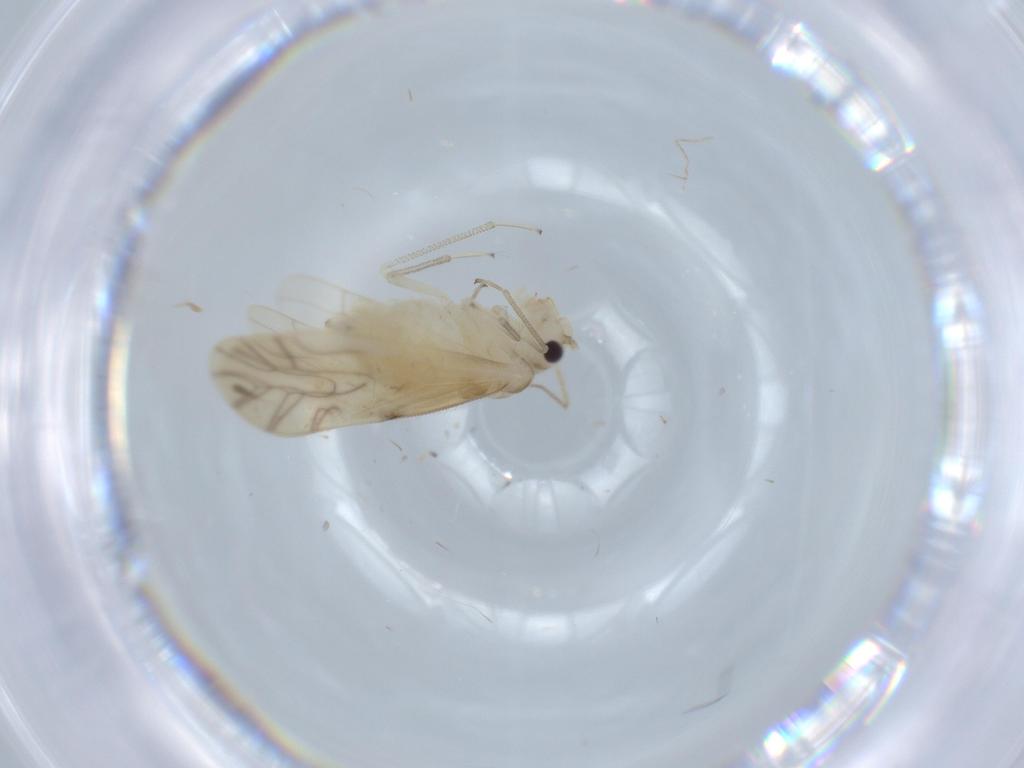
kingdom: Animalia
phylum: Arthropoda
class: Insecta
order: Psocodea
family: Caeciliusidae
